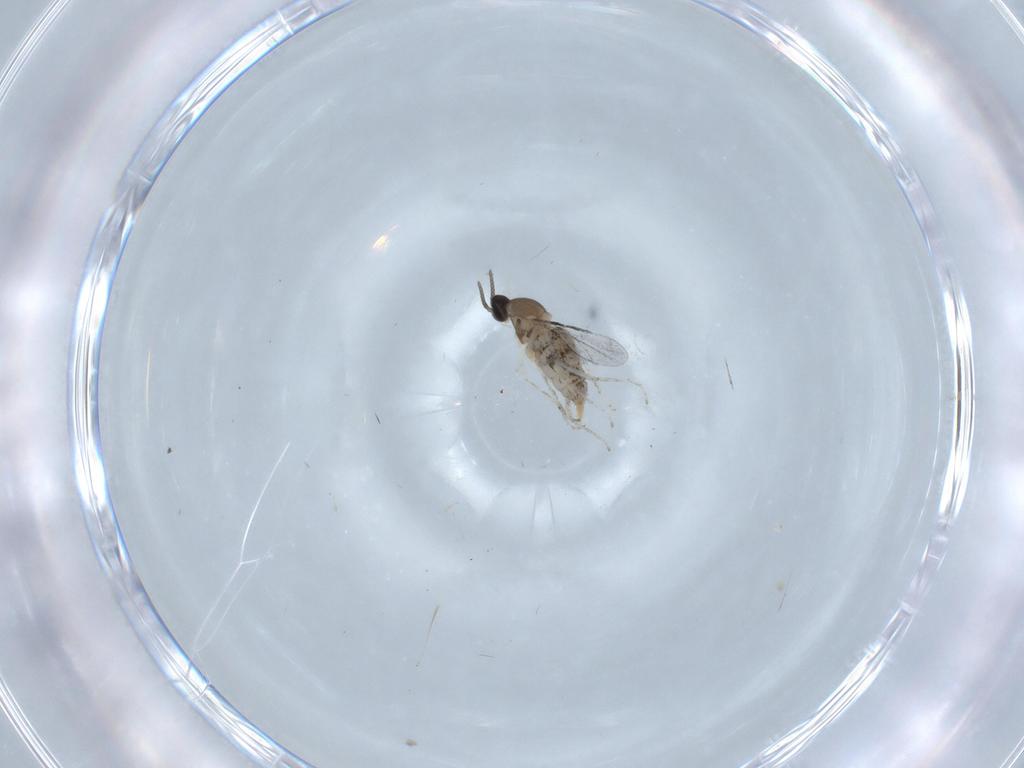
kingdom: Animalia
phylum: Arthropoda
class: Insecta
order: Diptera
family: Cecidomyiidae
